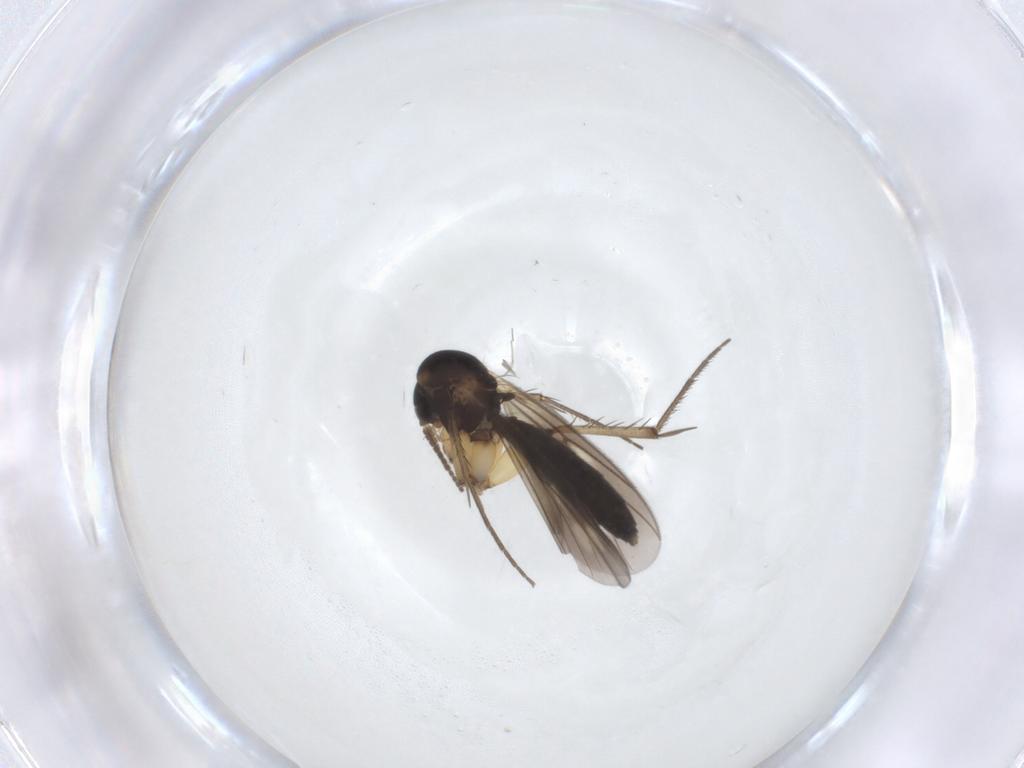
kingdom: Animalia
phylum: Arthropoda
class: Insecta
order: Diptera
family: Mycetophilidae
